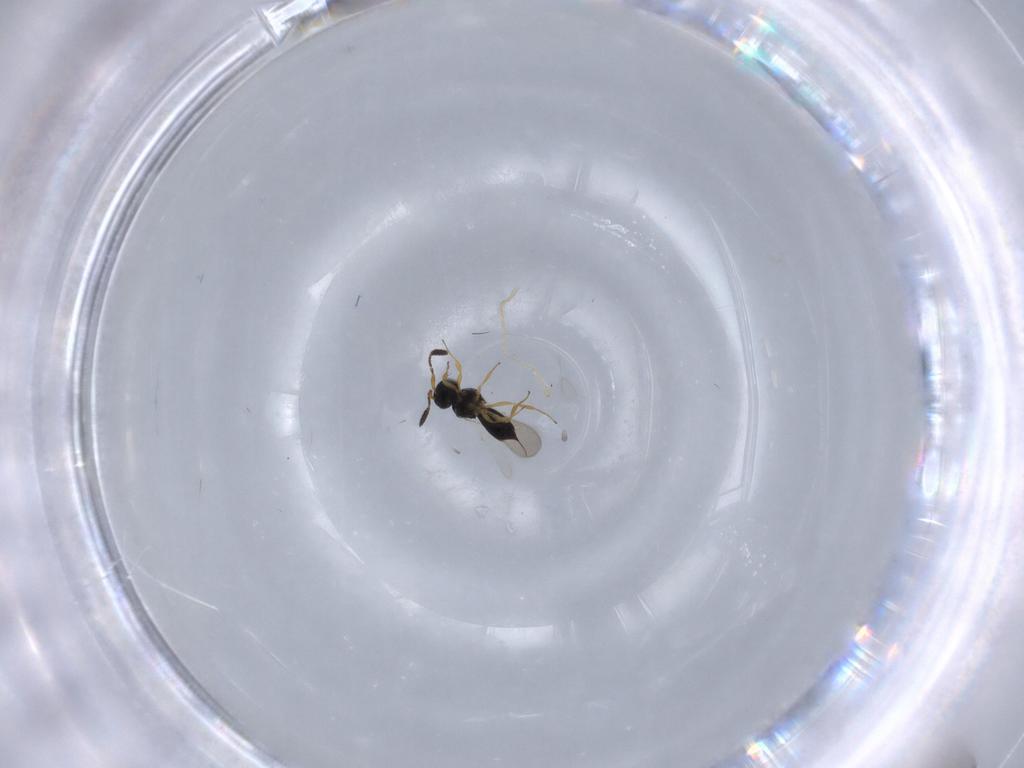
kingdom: Animalia
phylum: Arthropoda
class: Insecta
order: Hymenoptera
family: Scelionidae
